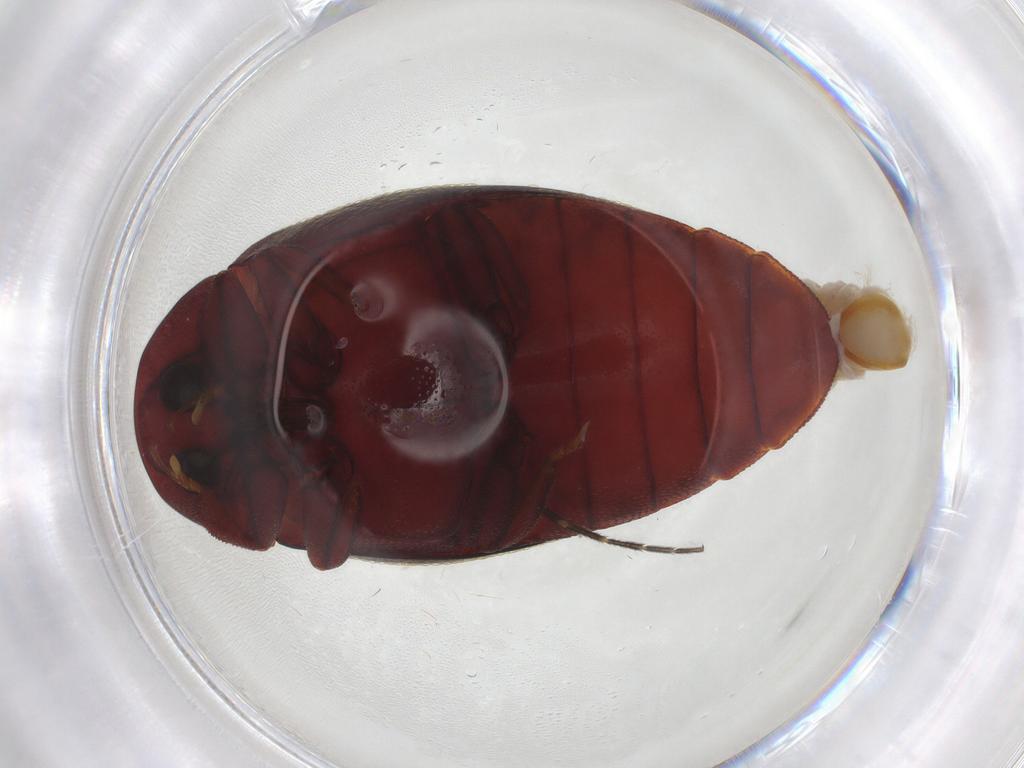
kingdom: Animalia
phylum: Arthropoda
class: Insecta
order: Coleoptera
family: Chelonariidae
